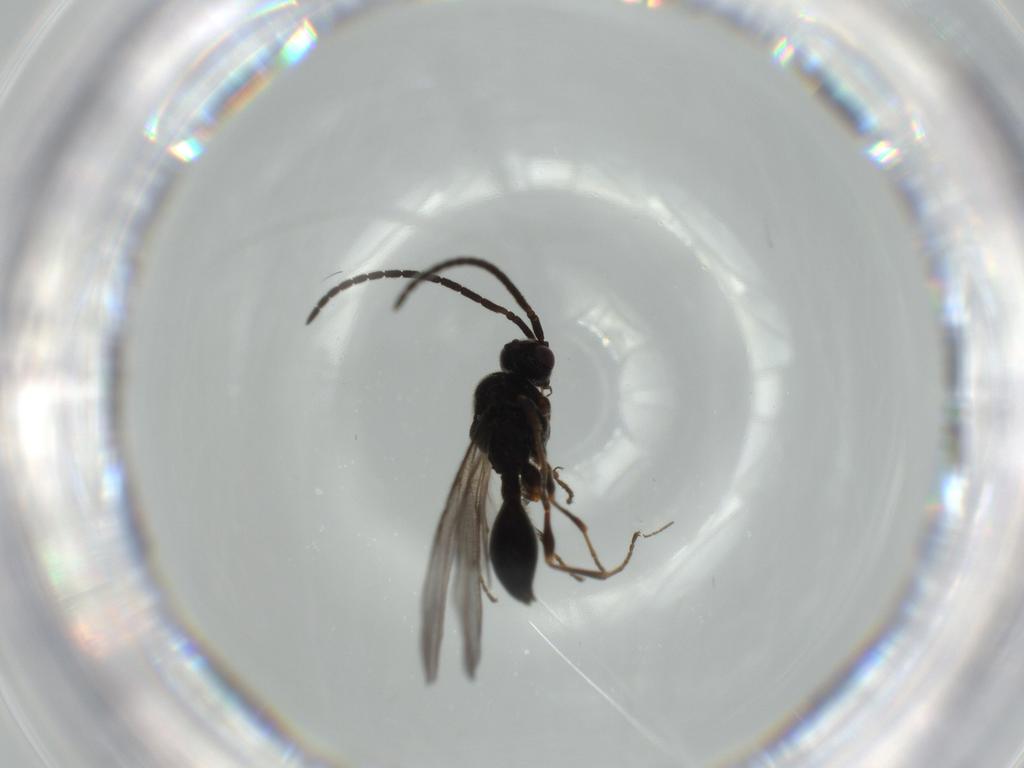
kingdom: Animalia
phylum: Arthropoda
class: Insecta
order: Hymenoptera
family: Diapriidae
